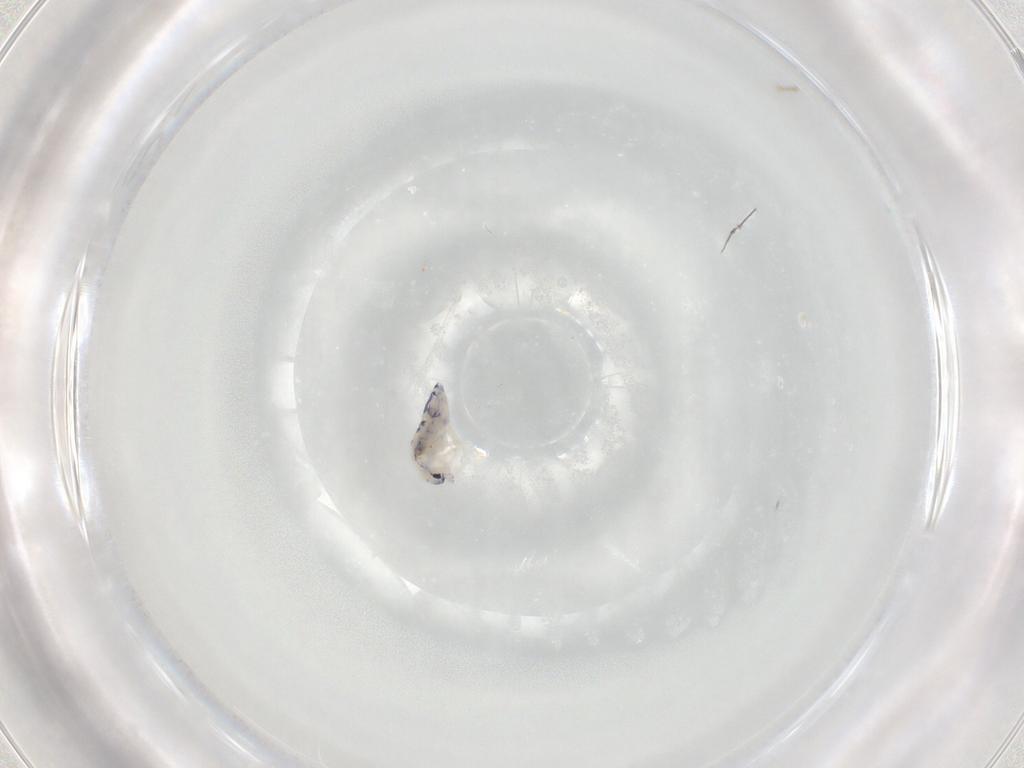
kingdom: Animalia
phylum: Arthropoda
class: Collembola
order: Entomobryomorpha
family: Entomobryidae
